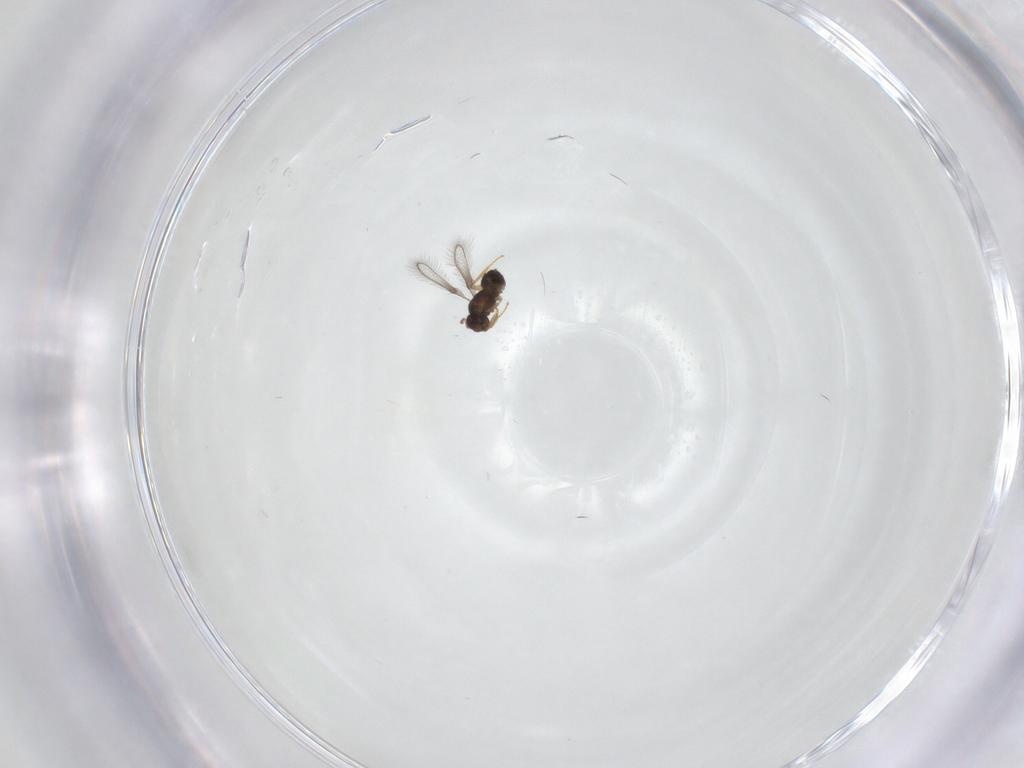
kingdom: Animalia
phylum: Arthropoda
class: Insecta
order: Hymenoptera
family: Mymaridae
